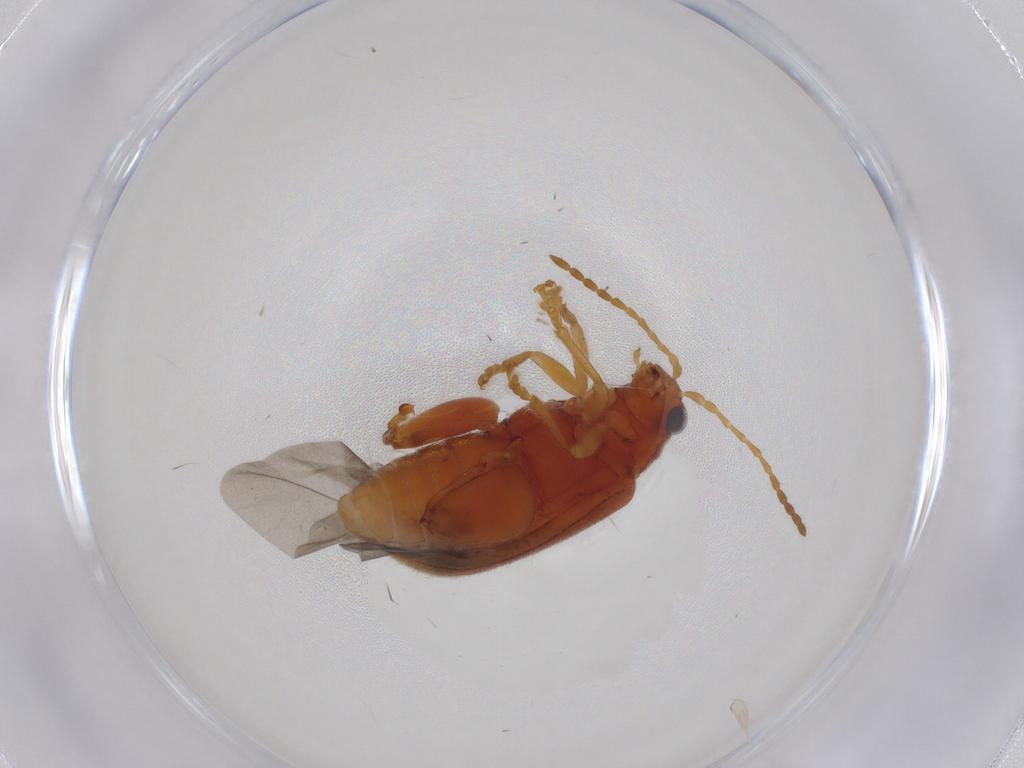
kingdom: Animalia
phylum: Arthropoda
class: Insecta
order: Coleoptera
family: Chrysomelidae
